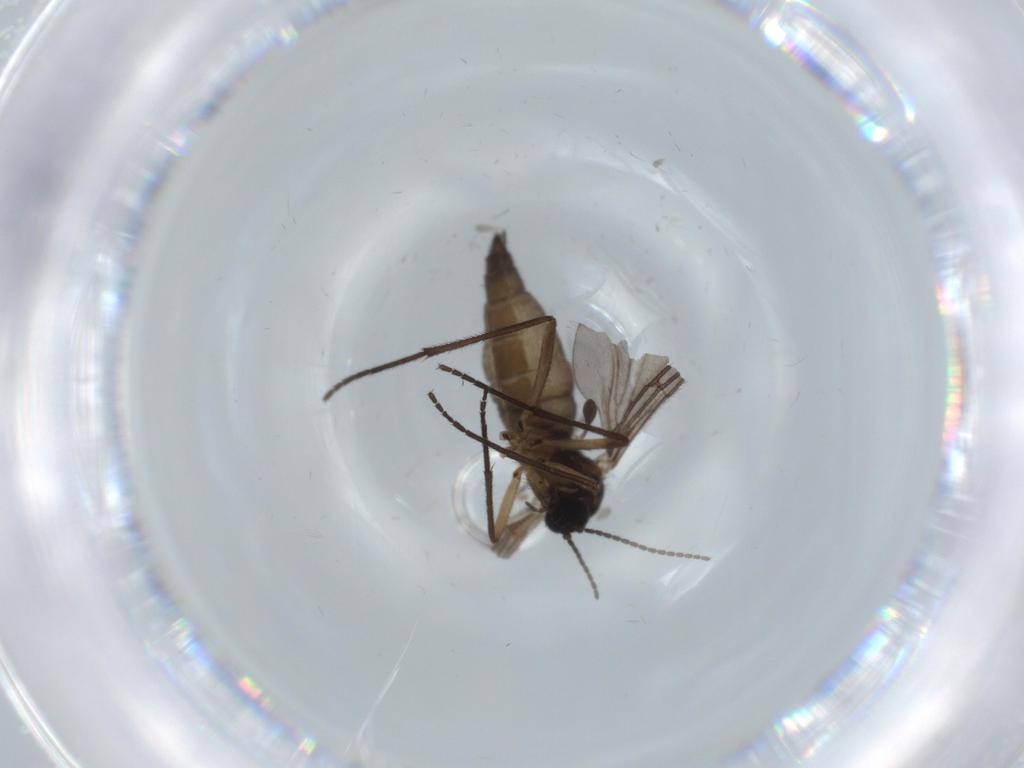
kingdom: Animalia
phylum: Arthropoda
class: Insecta
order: Diptera
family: Sciaridae
